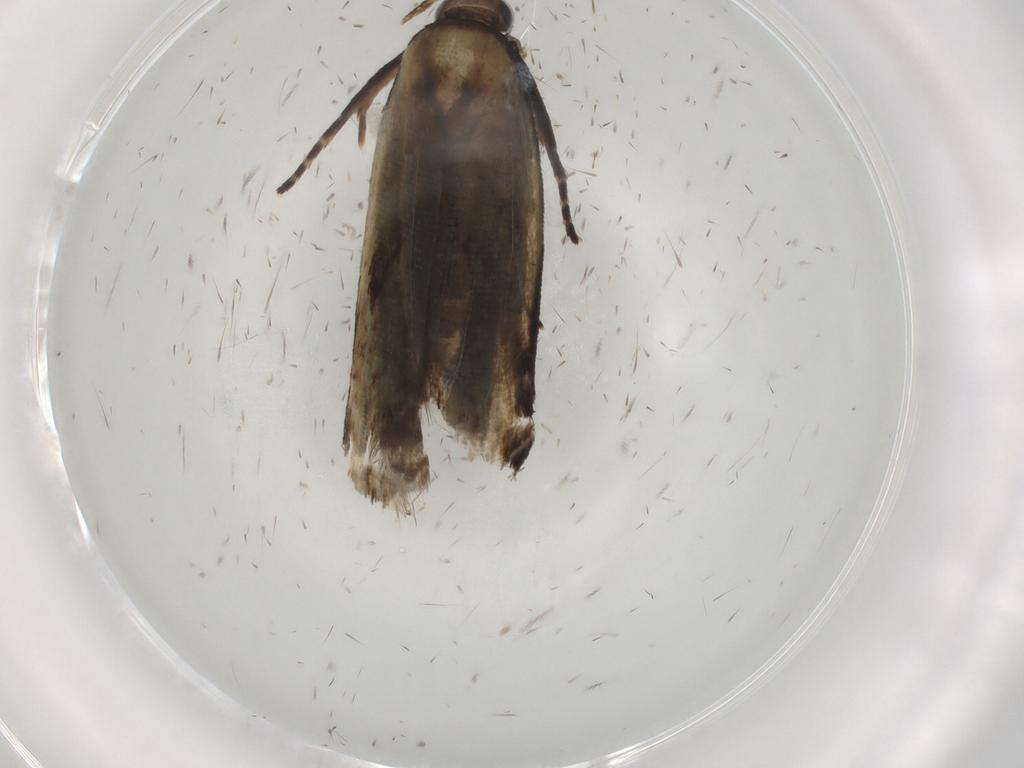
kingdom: Animalia
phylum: Arthropoda
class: Insecta
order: Lepidoptera
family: Gelechiidae
